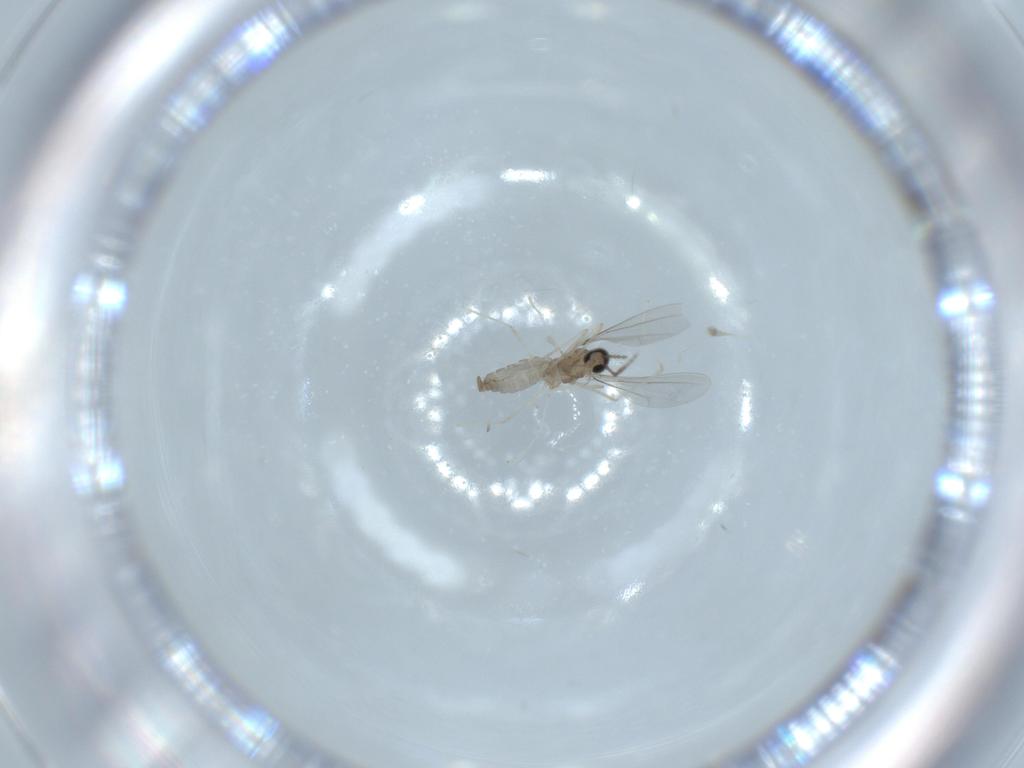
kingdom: Animalia
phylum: Arthropoda
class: Insecta
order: Diptera
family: Cecidomyiidae
